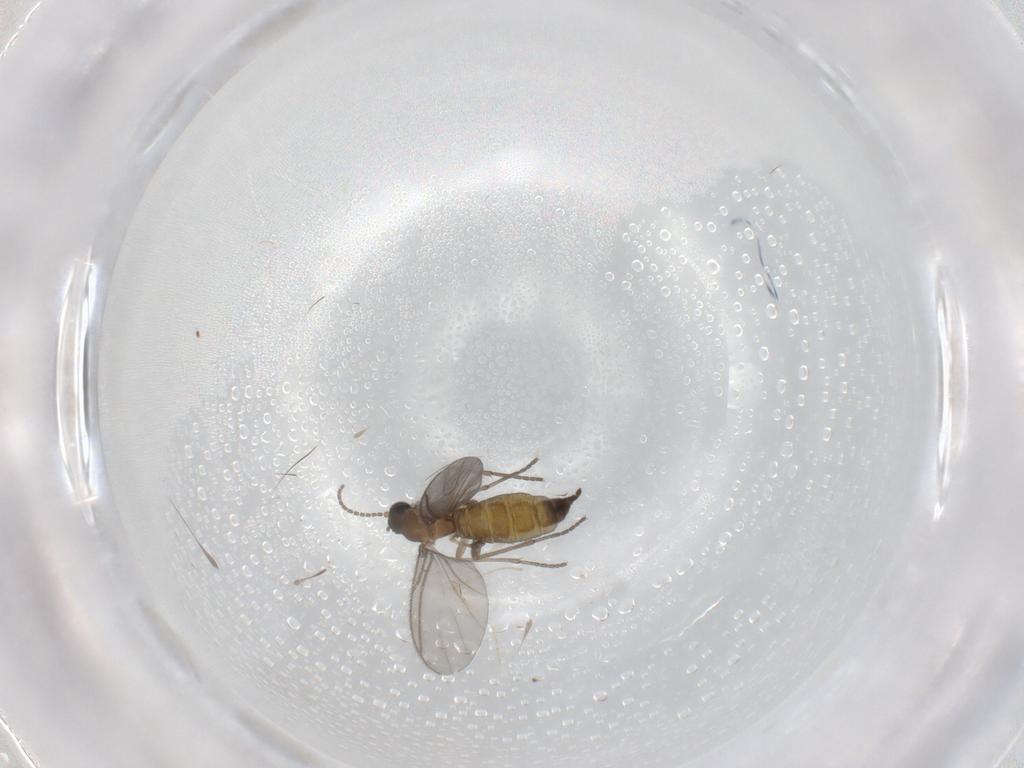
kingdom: Animalia
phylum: Arthropoda
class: Insecta
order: Diptera
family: Sciaridae
